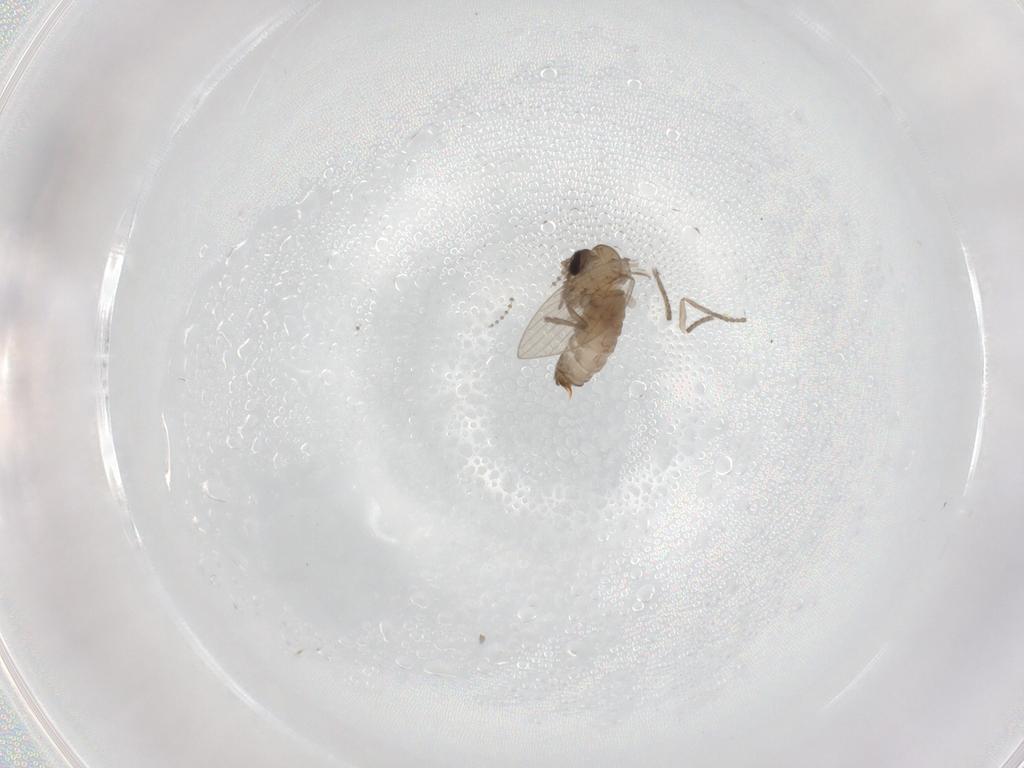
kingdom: Animalia
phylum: Arthropoda
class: Insecta
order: Diptera
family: Psychodidae
